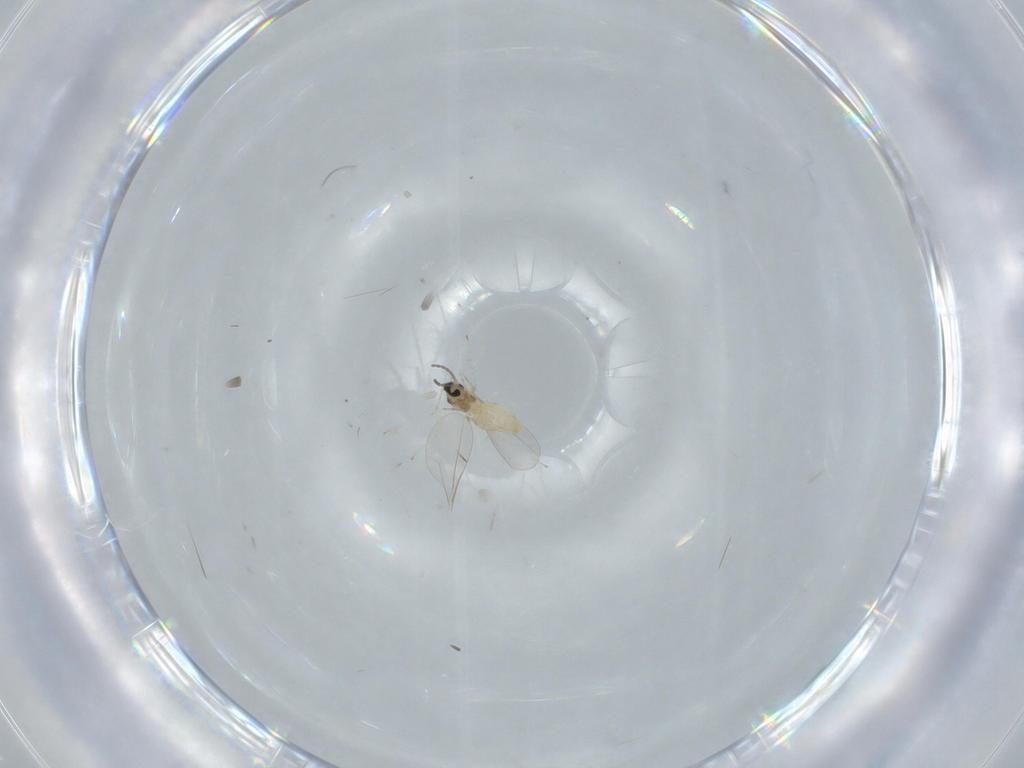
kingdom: Animalia
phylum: Arthropoda
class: Insecta
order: Diptera
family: Cecidomyiidae
